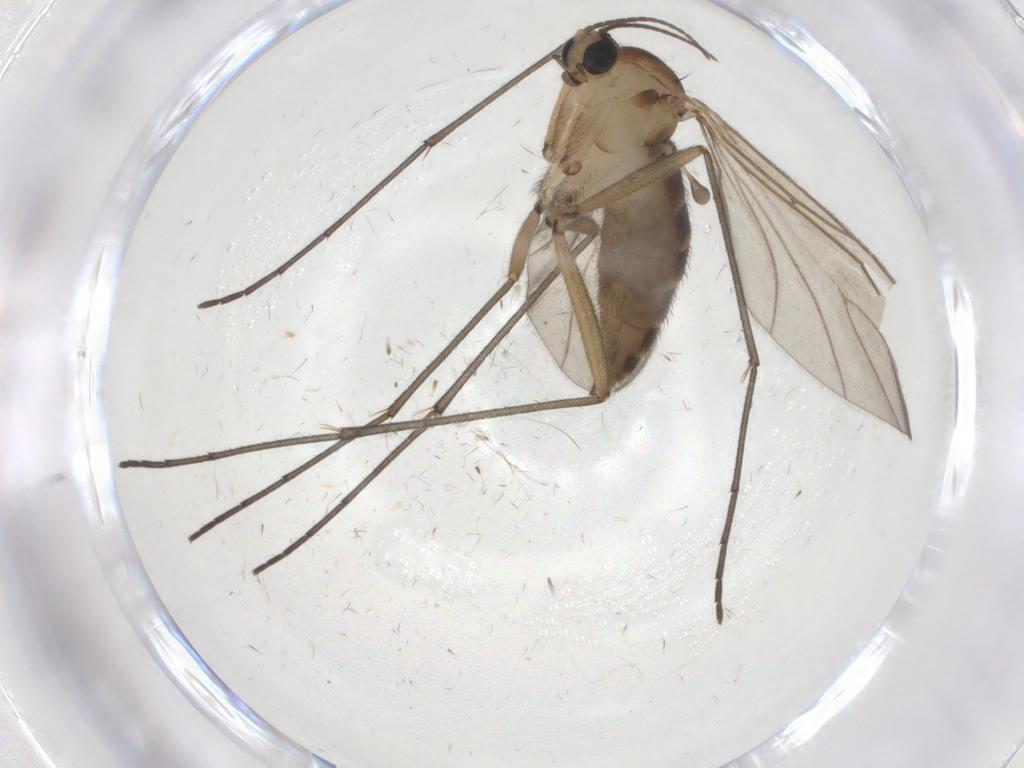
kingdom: Animalia
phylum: Arthropoda
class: Insecta
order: Diptera
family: Sciaridae
